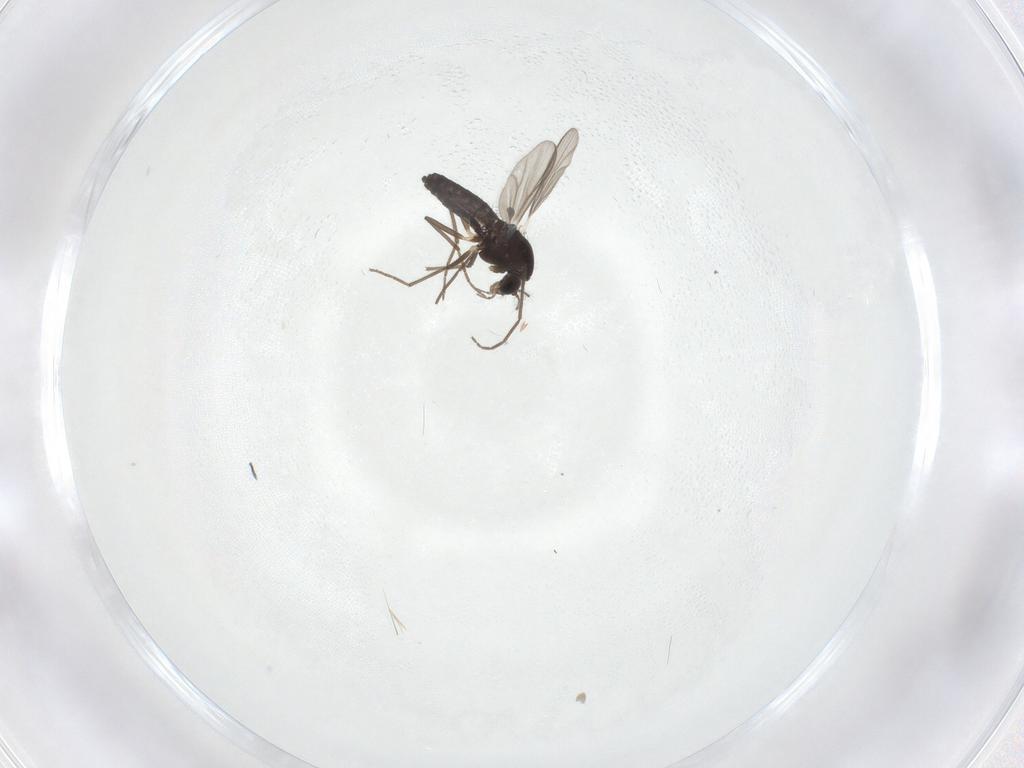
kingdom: Animalia
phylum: Arthropoda
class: Insecta
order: Diptera
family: Chironomidae
